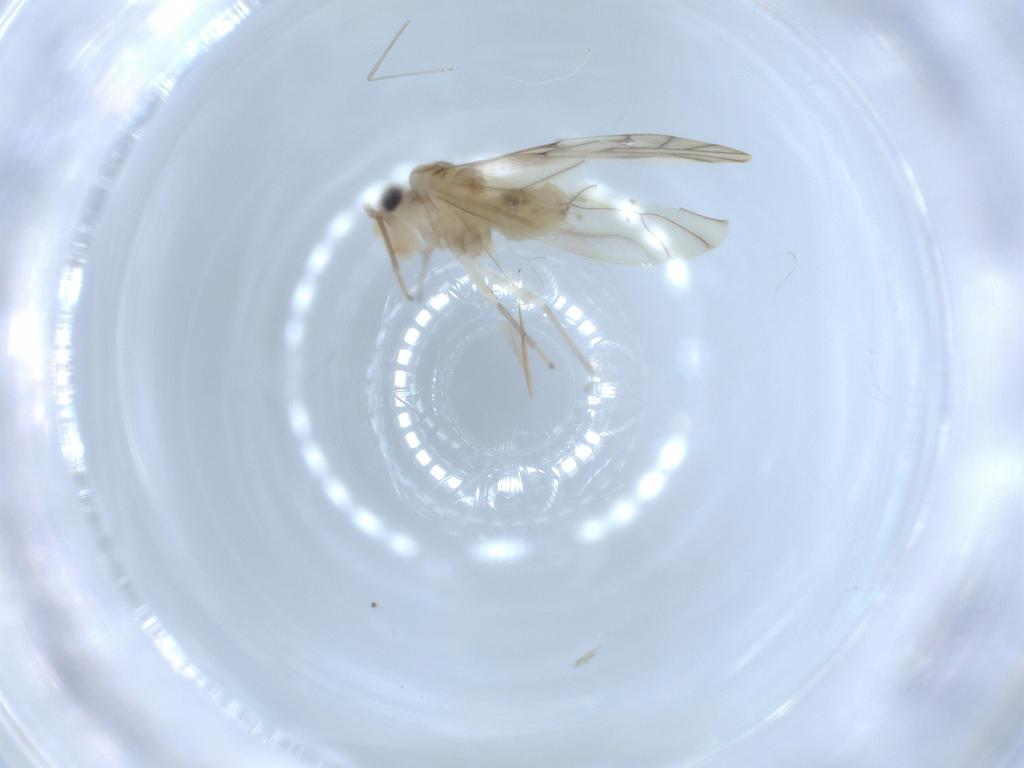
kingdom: Animalia
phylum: Arthropoda
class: Insecta
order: Psocodea
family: Caeciliusidae
